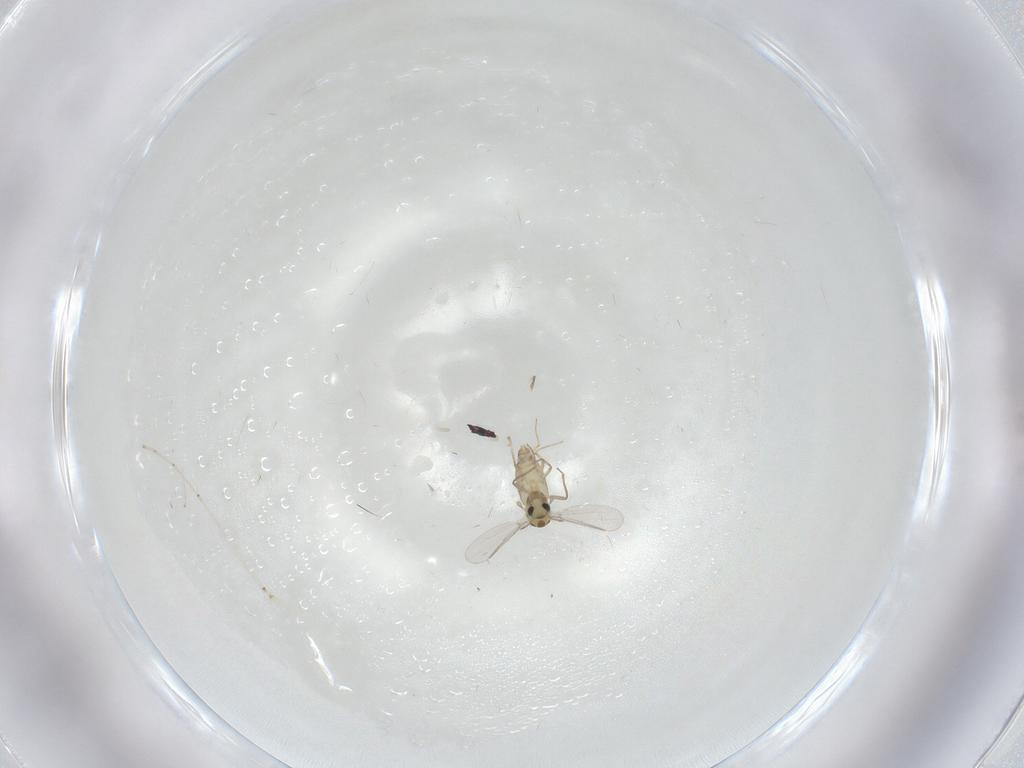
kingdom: Animalia
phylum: Arthropoda
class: Insecta
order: Diptera
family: Chironomidae
